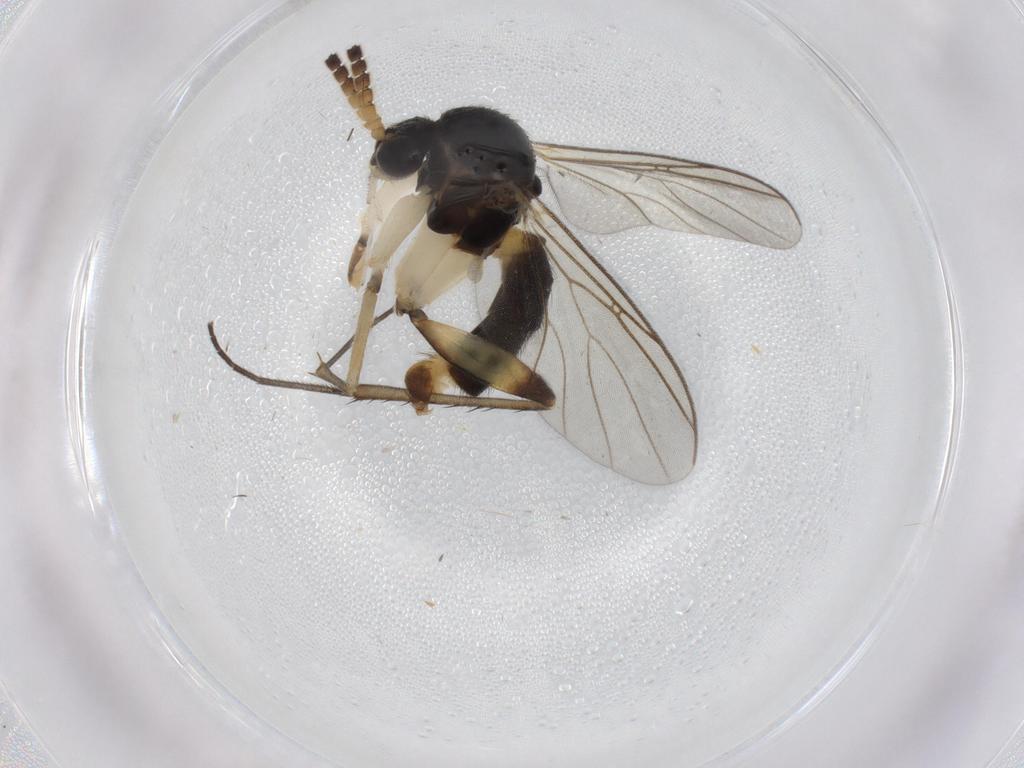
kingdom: Animalia
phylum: Arthropoda
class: Insecta
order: Diptera
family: Mycetophilidae
